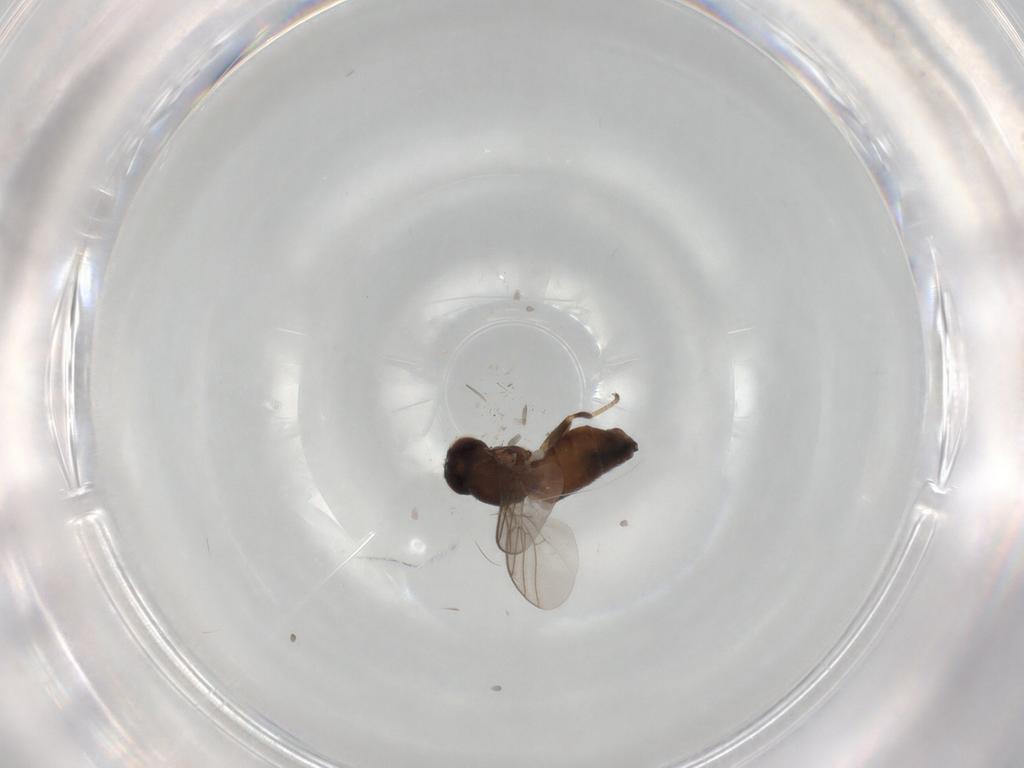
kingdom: Animalia
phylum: Arthropoda
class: Insecta
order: Diptera
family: Chloropidae
